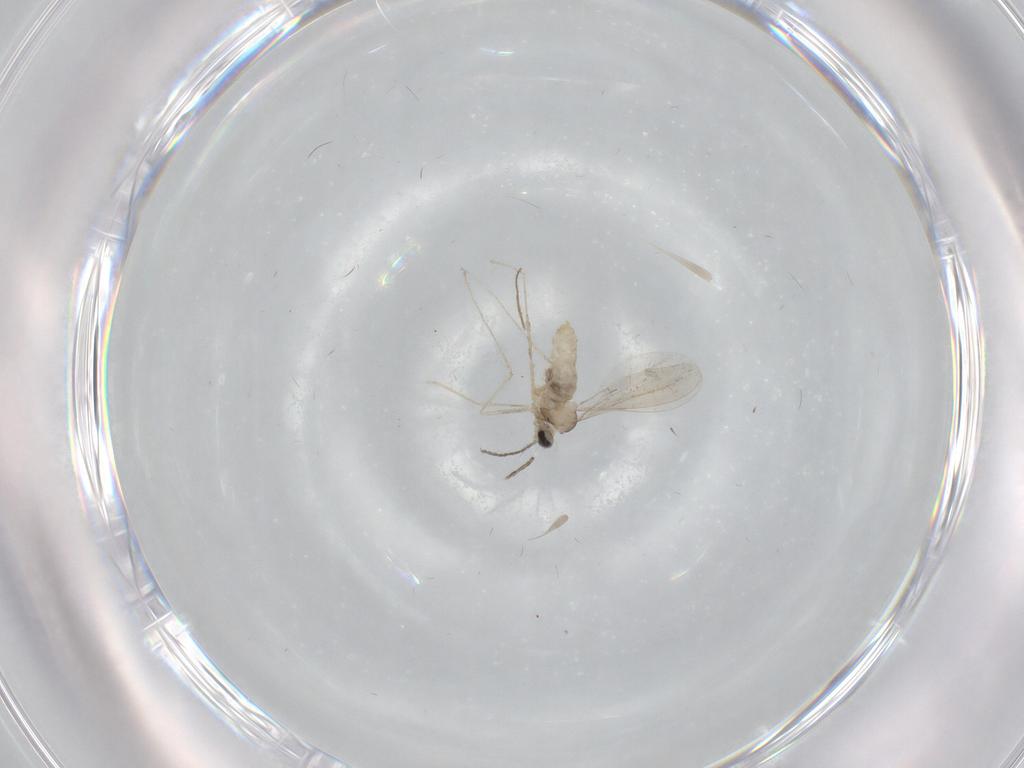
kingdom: Animalia
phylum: Arthropoda
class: Insecta
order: Diptera
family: Cecidomyiidae
